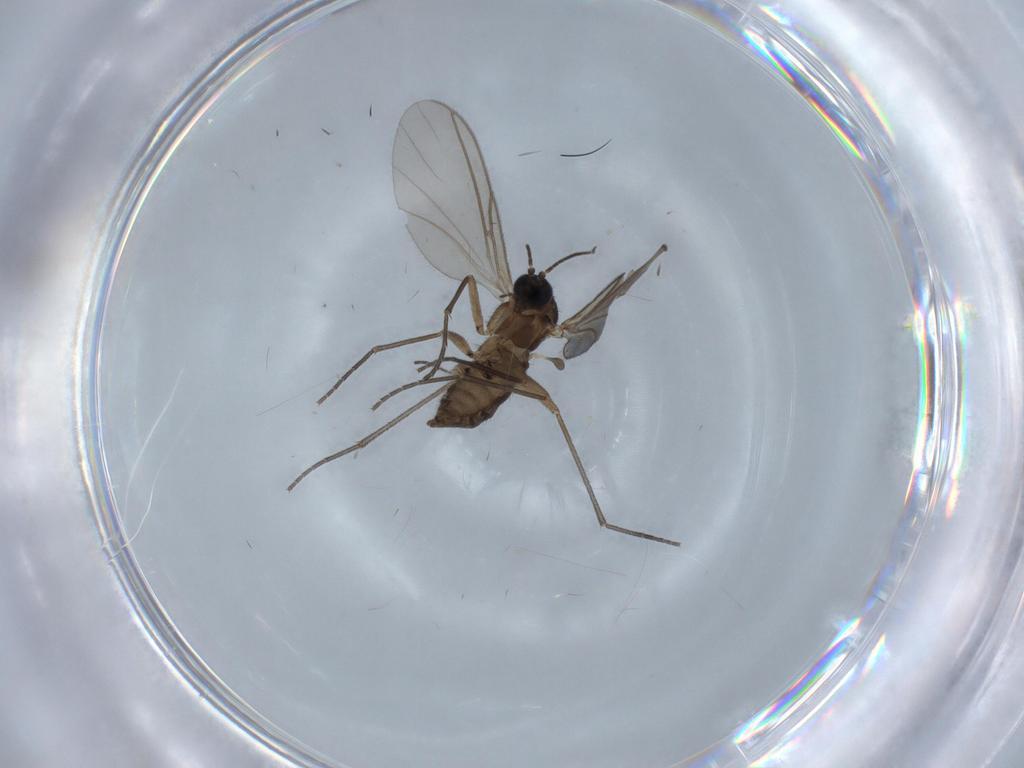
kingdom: Animalia
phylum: Arthropoda
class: Insecta
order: Diptera
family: Sciaridae
